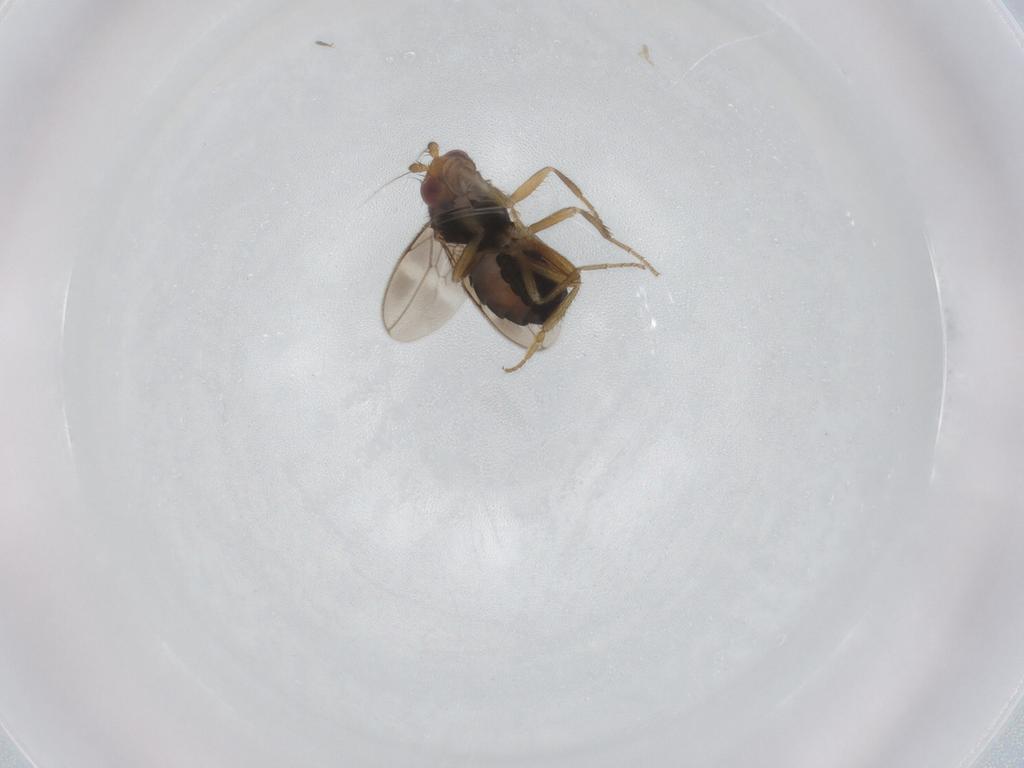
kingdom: Animalia
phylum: Arthropoda
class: Insecta
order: Diptera
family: Sphaeroceridae
